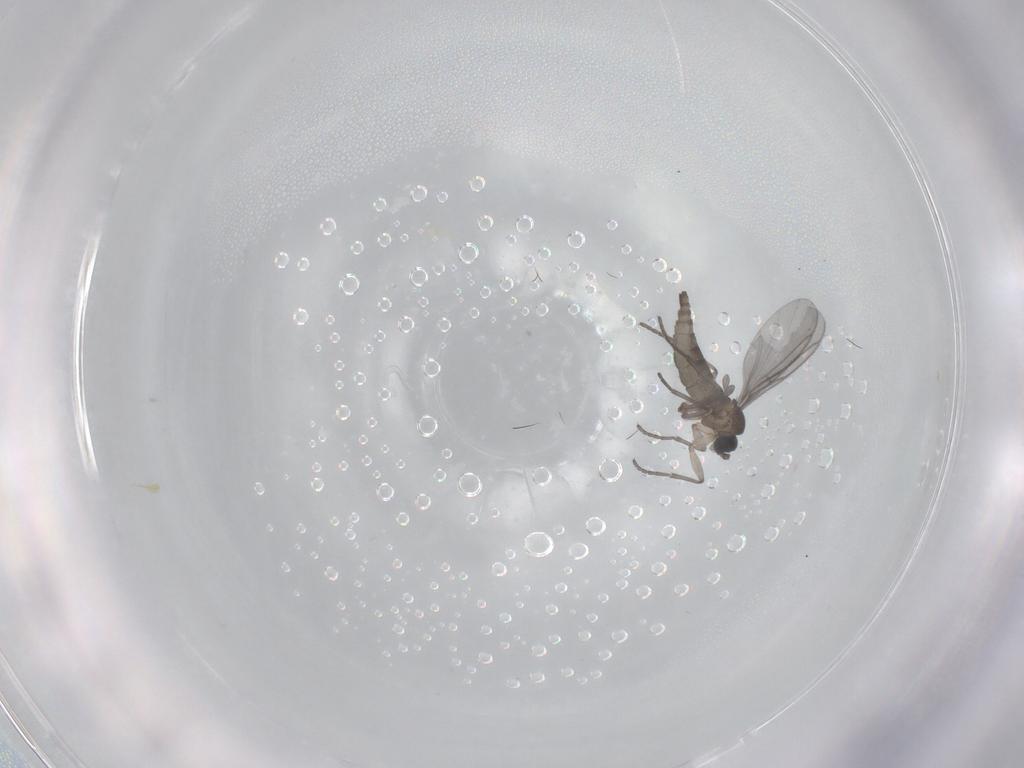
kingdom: Animalia
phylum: Arthropoda
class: Insecta
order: Diptera
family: Sciaridae
